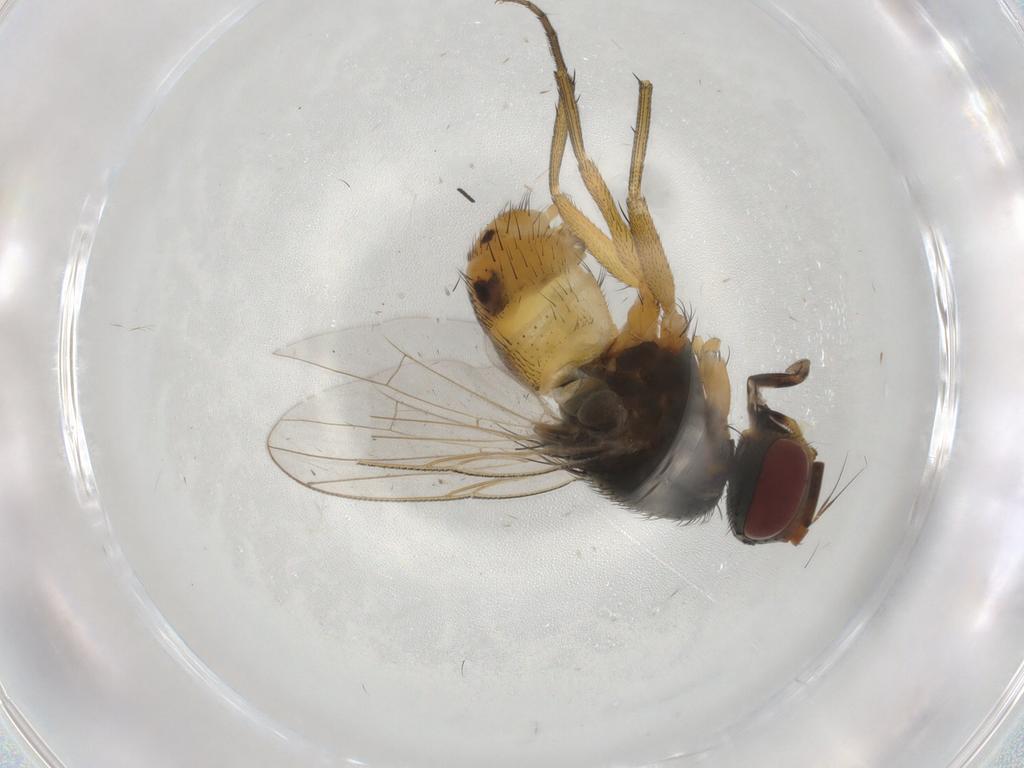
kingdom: Animalia
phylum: Arthropoda
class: Insecta
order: Diptera
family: Muscidae
